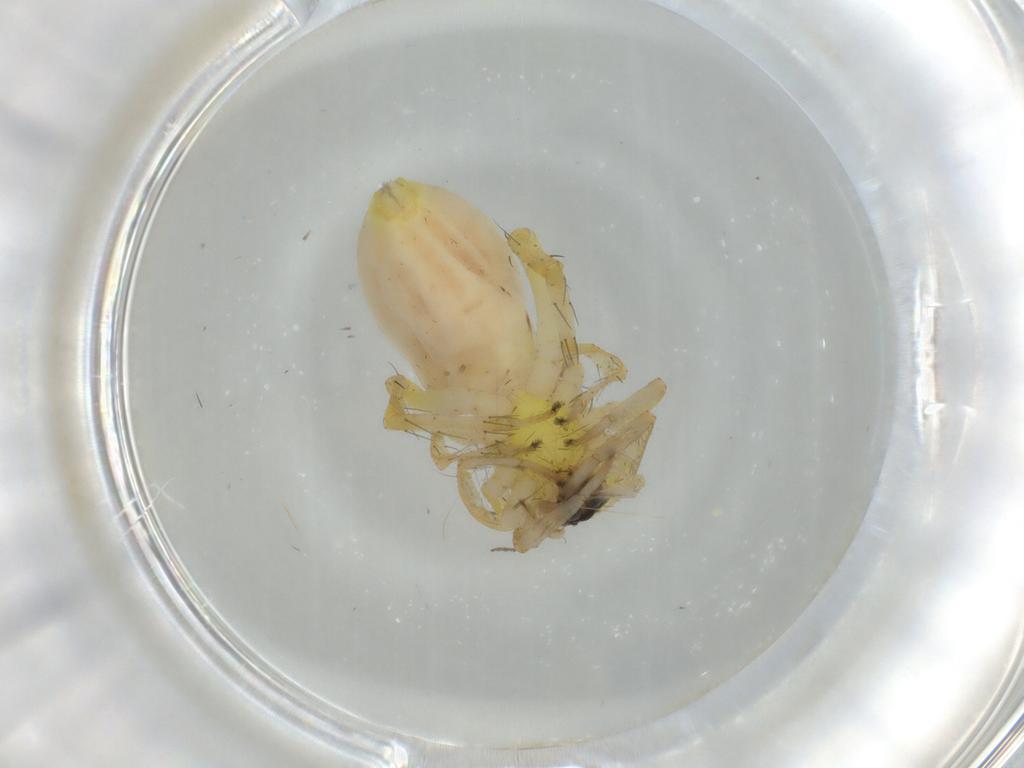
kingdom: Animalia
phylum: Arthropoda
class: Arachnida
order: Araneae
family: Anyphaenidae
